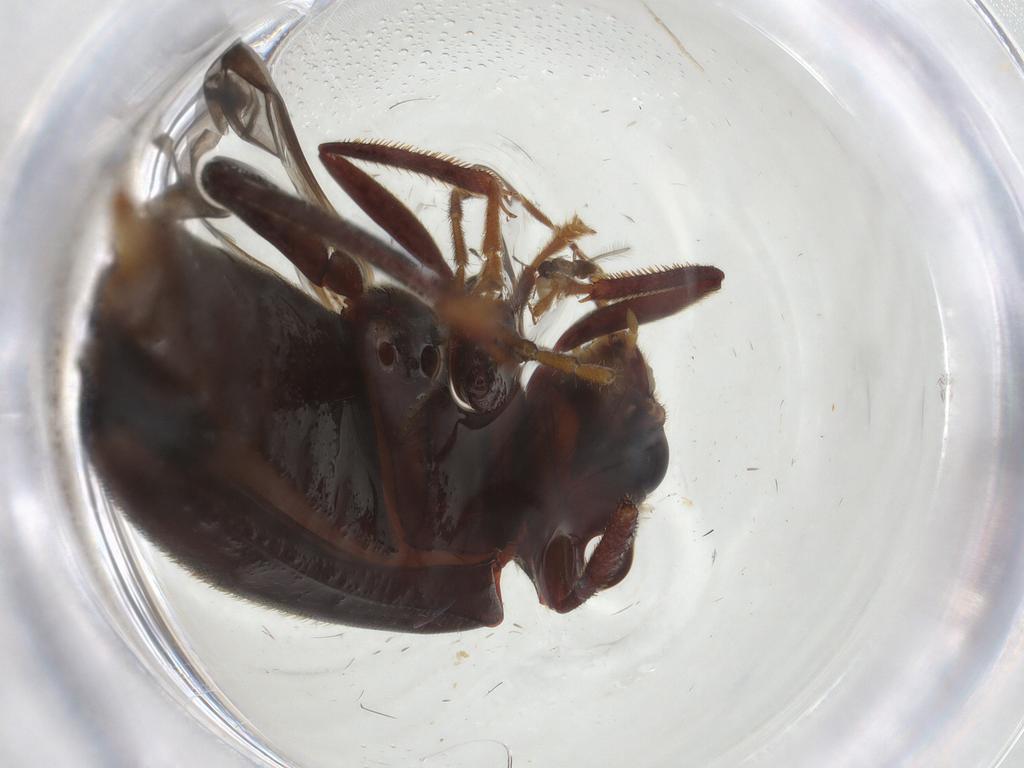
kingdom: Animalia
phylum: Arthropoda
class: Insecta
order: Coleoptera
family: Ptilodactylidae
